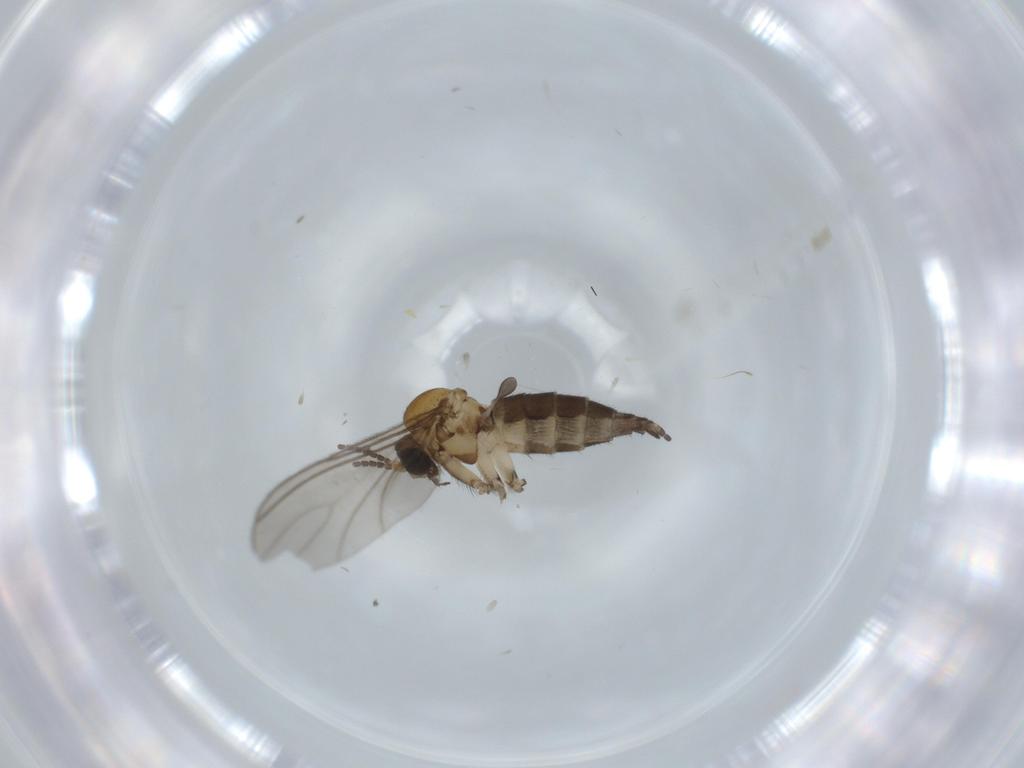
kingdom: Animalia
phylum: Arthropoda
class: Insecta
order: Diptera
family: Sciaridae
